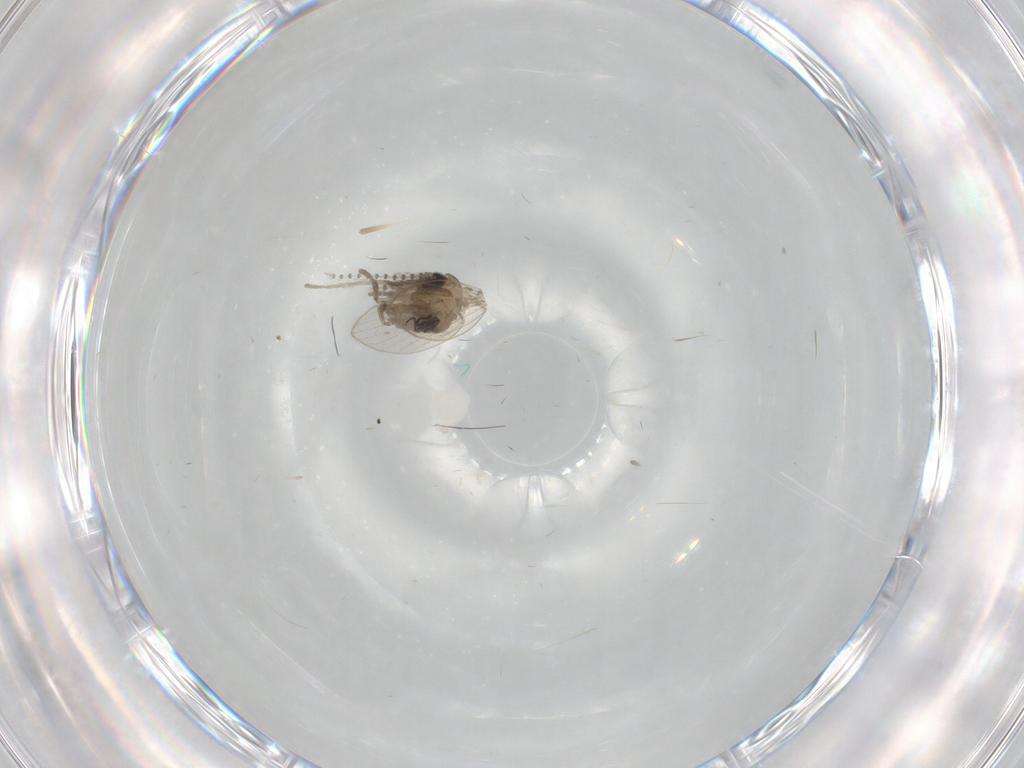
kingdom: Animalia
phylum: Arthropoda
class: Insecta
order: Diptera
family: Psychodidae
